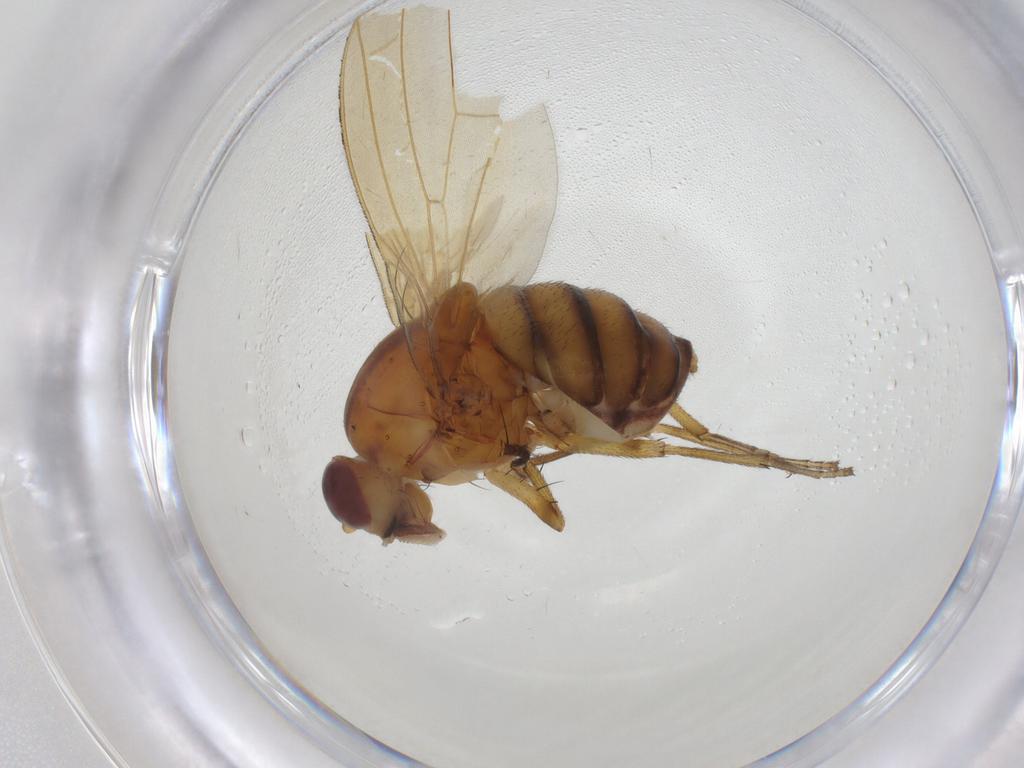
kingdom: Animalia
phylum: Arthropoda
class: Insecta
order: Diptera
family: Lauxaniidae
